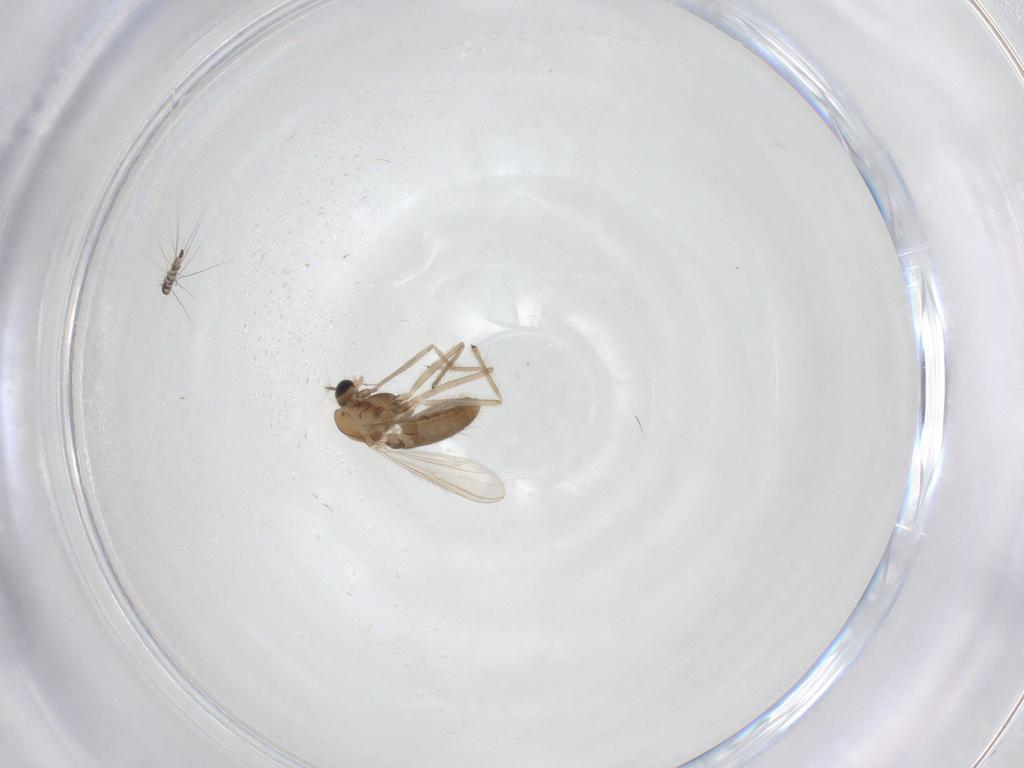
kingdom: Animalia
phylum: Arthropoda
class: Insecta
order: Diptera
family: Chironomidae
